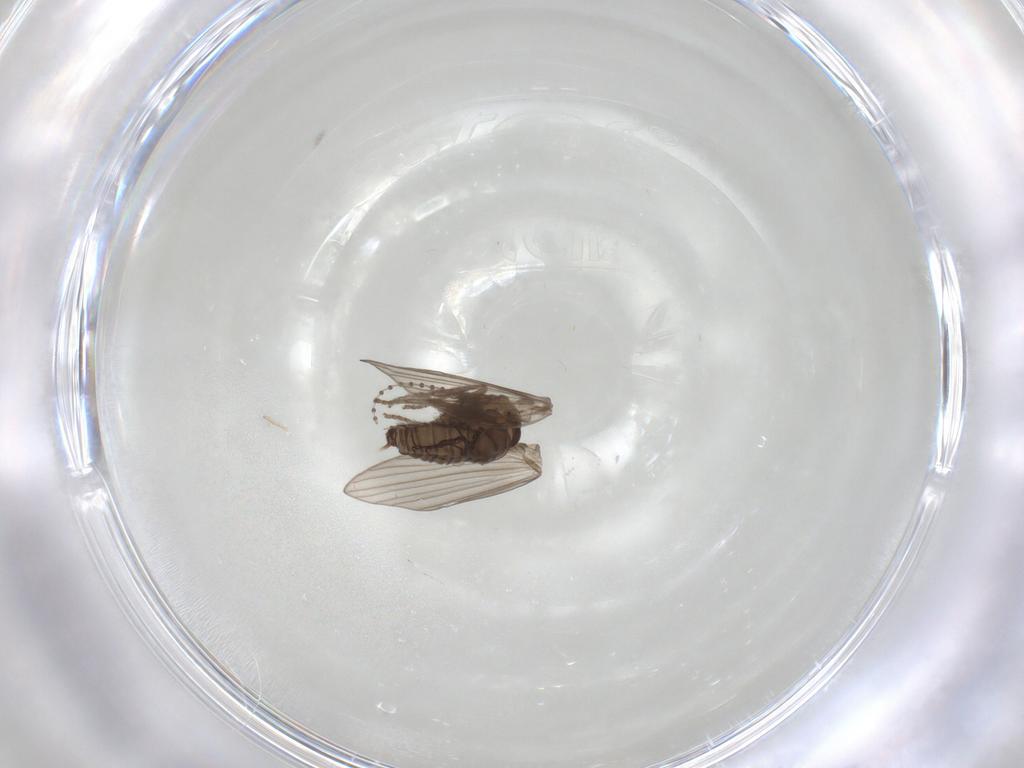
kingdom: Animalia
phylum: Arthropoda
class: Insecta
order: Diptera
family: Psychodidae
